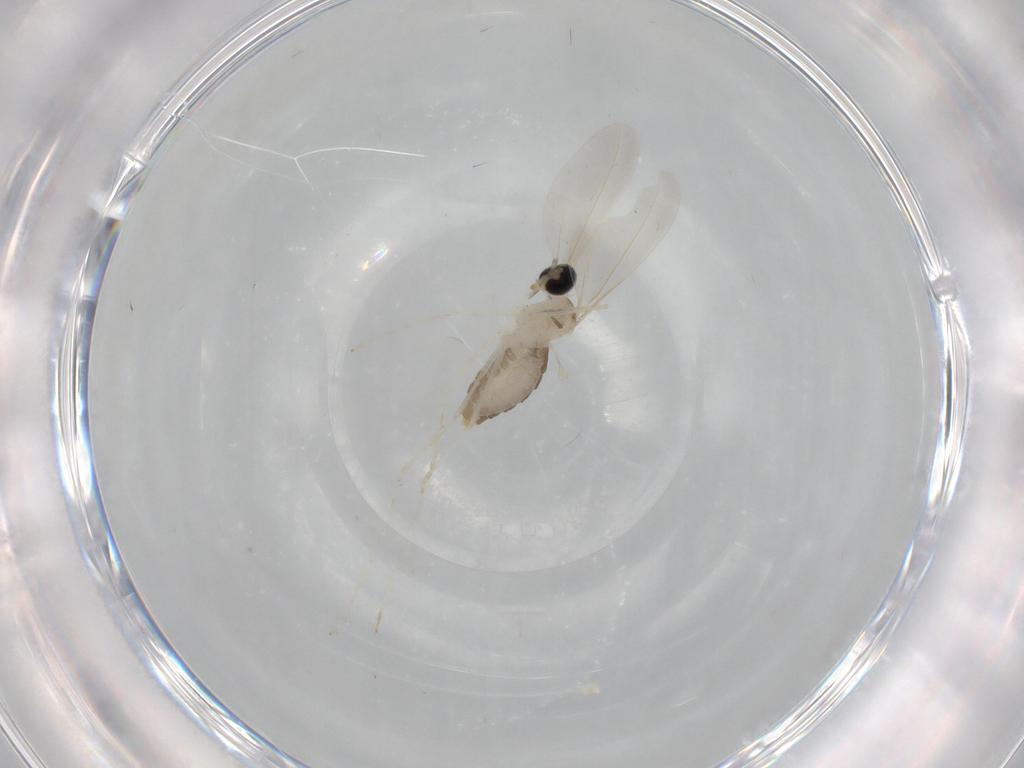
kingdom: Animalia
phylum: Arthropoda
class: Insecta
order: Diptera
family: Cecidomyiidae
